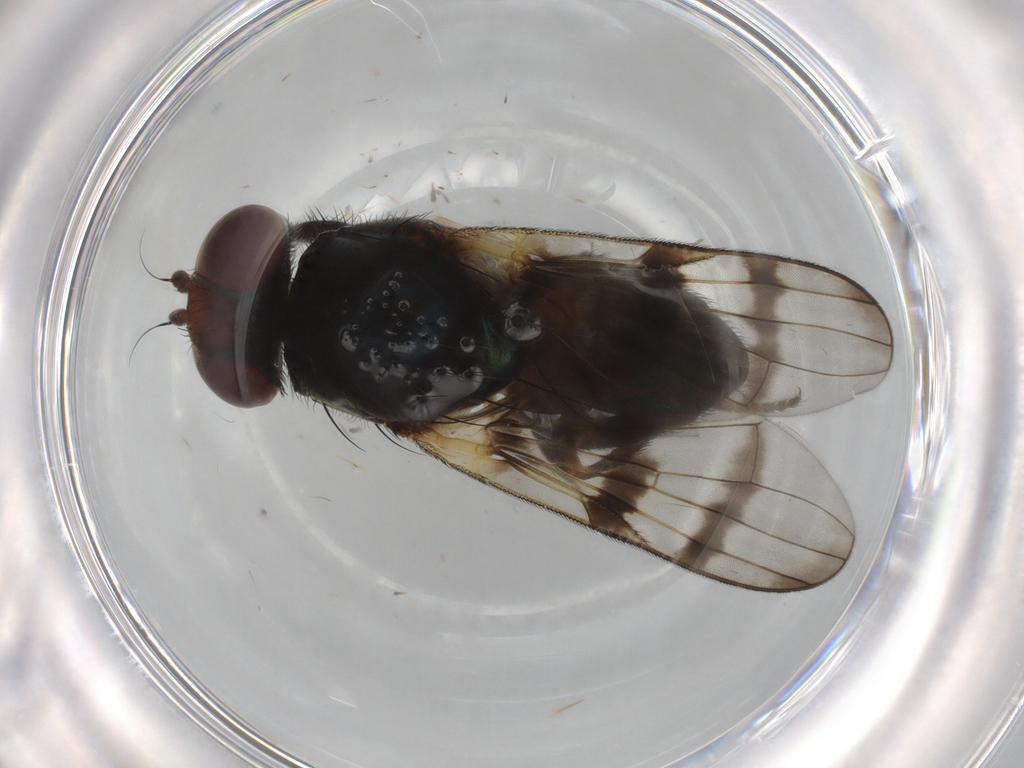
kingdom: Animalia
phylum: Arthropoda
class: Insecta
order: Diptera
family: Ulidiidae
